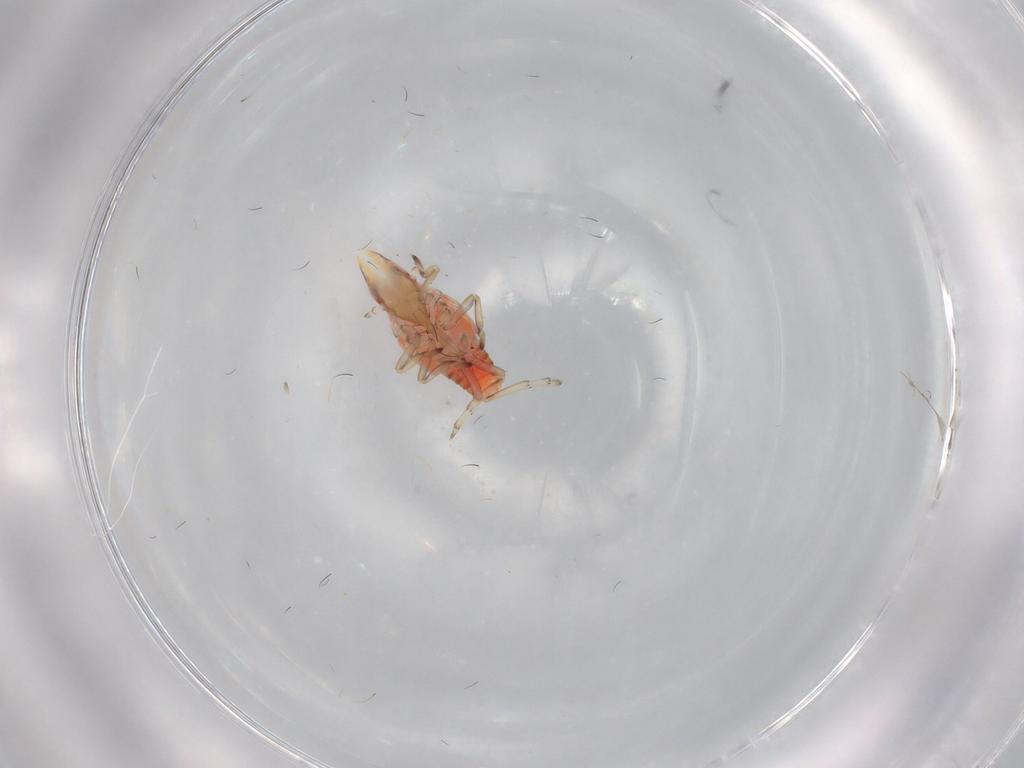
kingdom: Animalia
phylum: Arthropoda
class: Insecta
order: Hemiptera
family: Eurybrachidae
